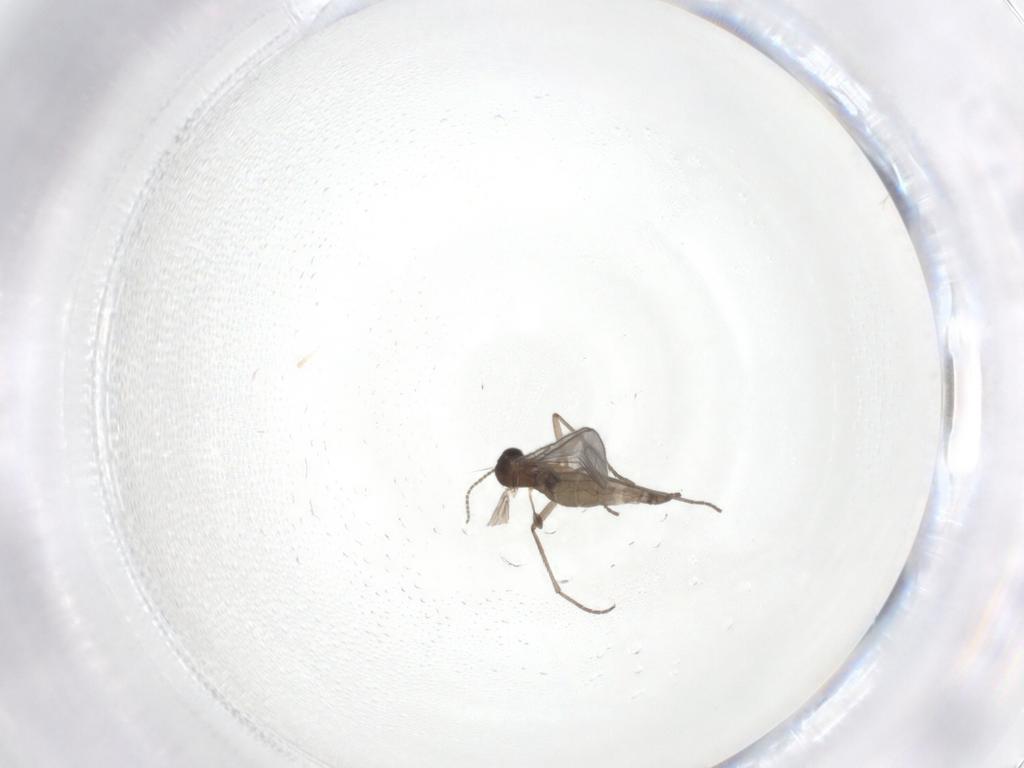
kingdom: Animalia
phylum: Arthropoda
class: Insecta
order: Diptera
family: Sciaridae
